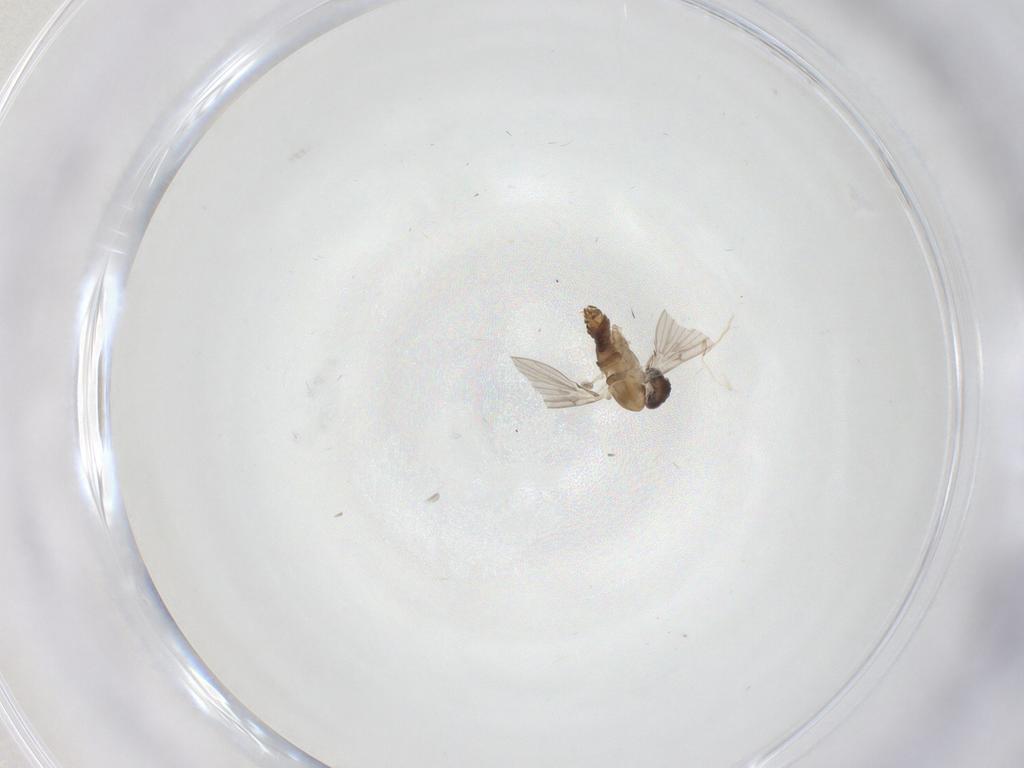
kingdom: Animalia
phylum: Arthropoda
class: Insecta
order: Diptera
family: Psychodidae
